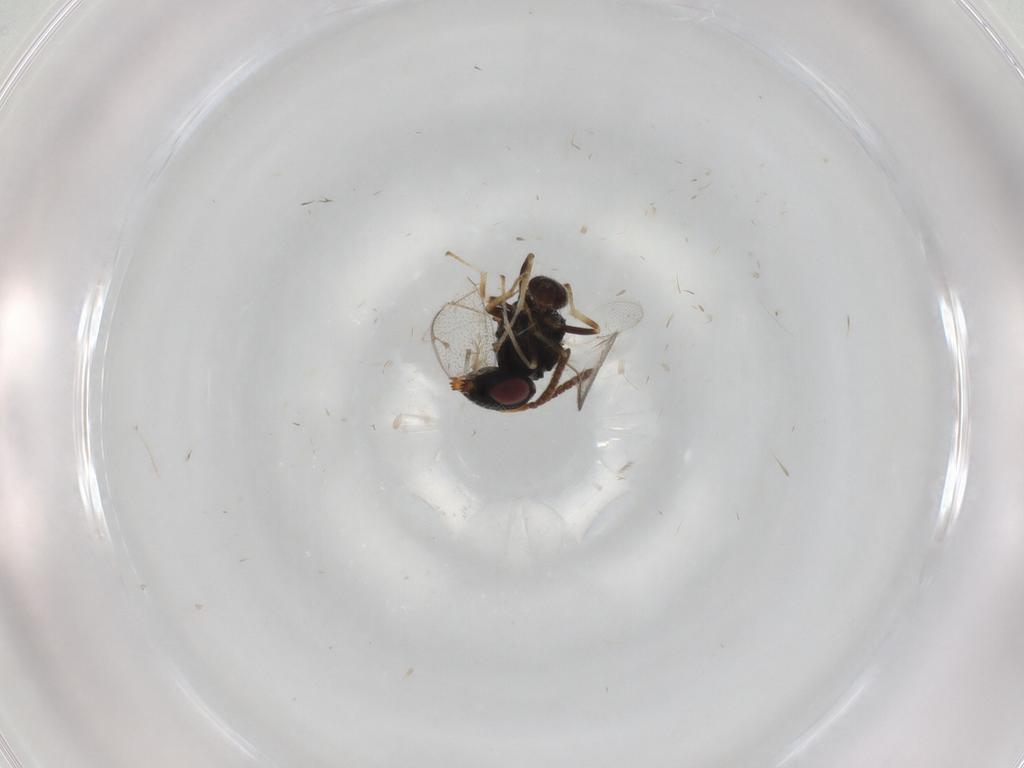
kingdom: Animalia
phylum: Arthropoda
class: Insecta
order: Hymenoptera
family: Pteromalidae
